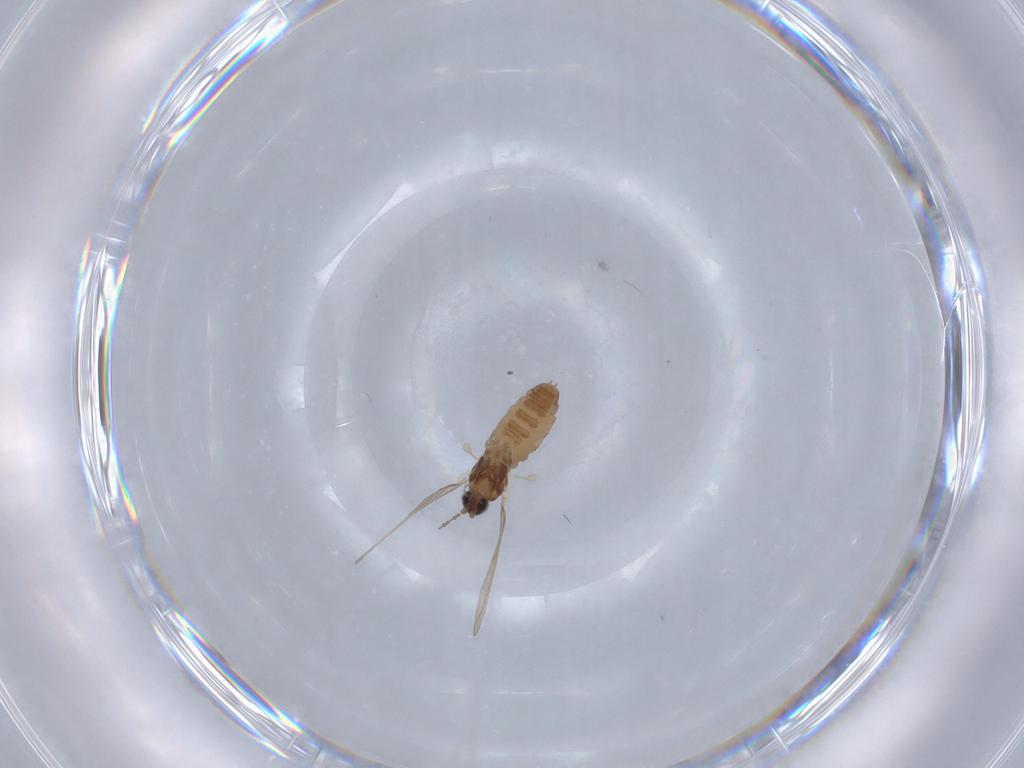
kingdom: Animalia
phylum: Arthropoda
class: Insecta
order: Diptera
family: Cecidomyiidae
